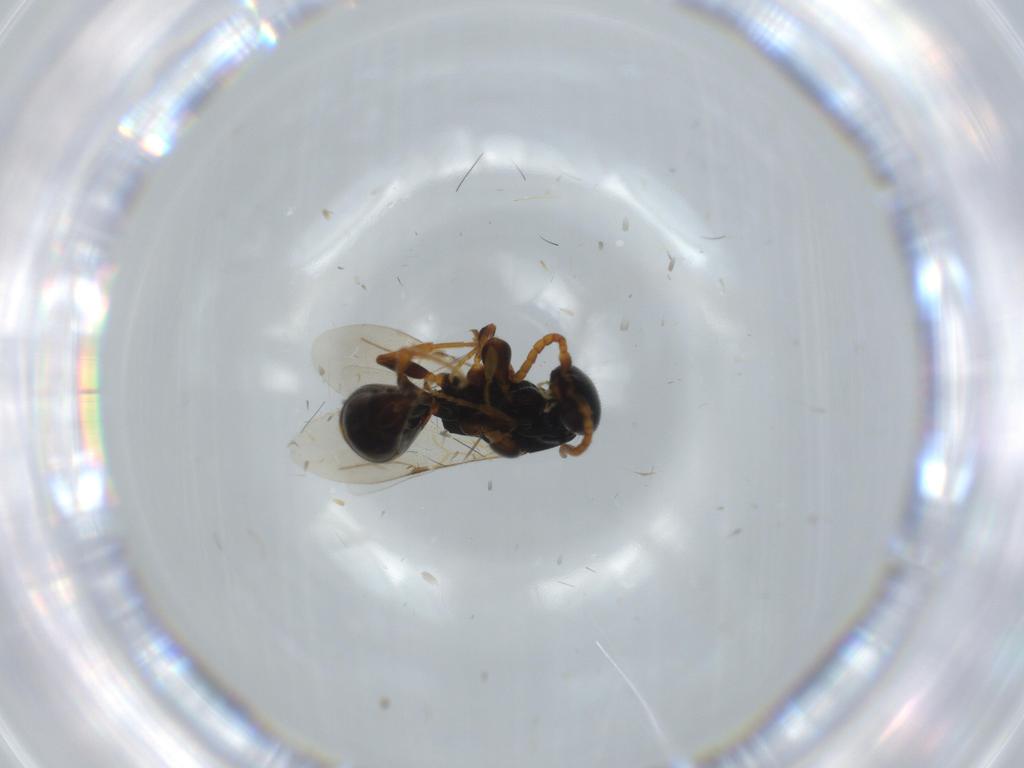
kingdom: Animalia
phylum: Arthropoda
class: Insecta
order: Hymenoptera
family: Bethylidae
